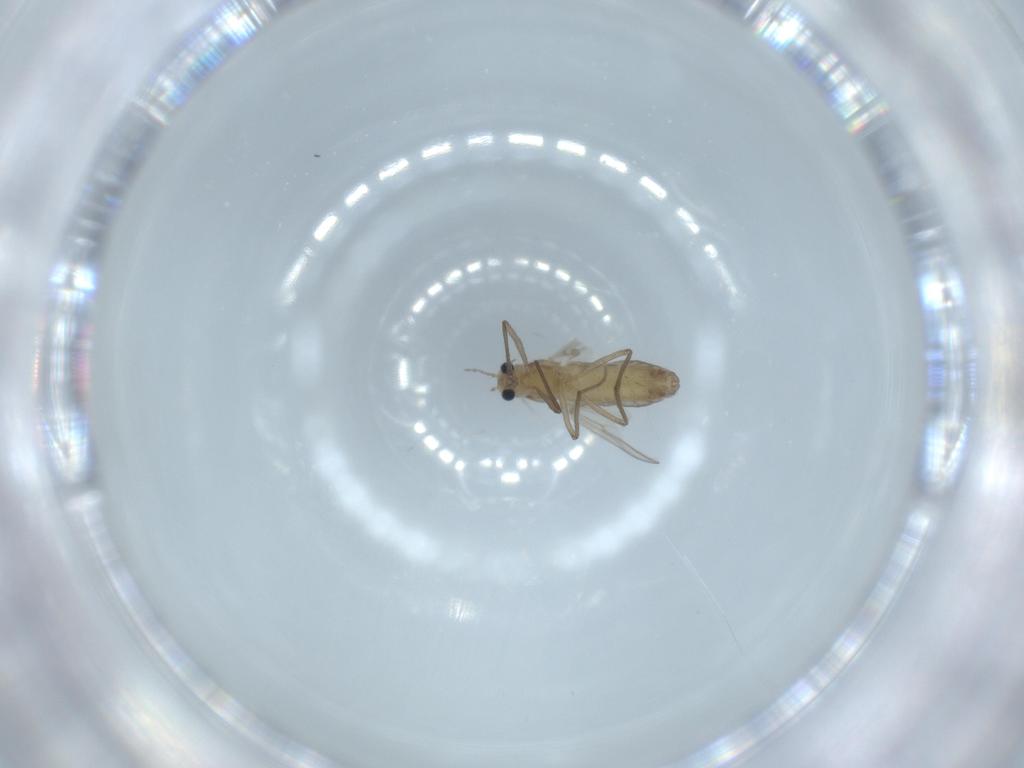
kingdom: Animalia
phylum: Arthropoda
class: Insecta
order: Diptera
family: Chironomidae
